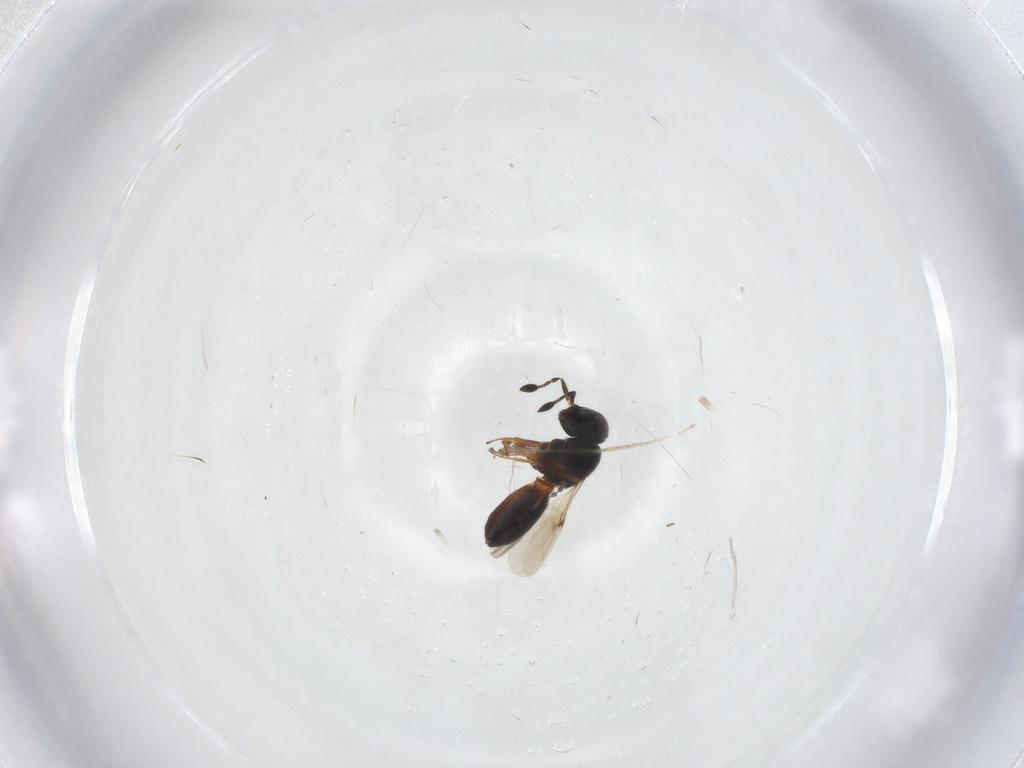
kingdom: Animalia
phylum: Arthropoda
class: Insecta
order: Hymenoptera
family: Scelionidae
